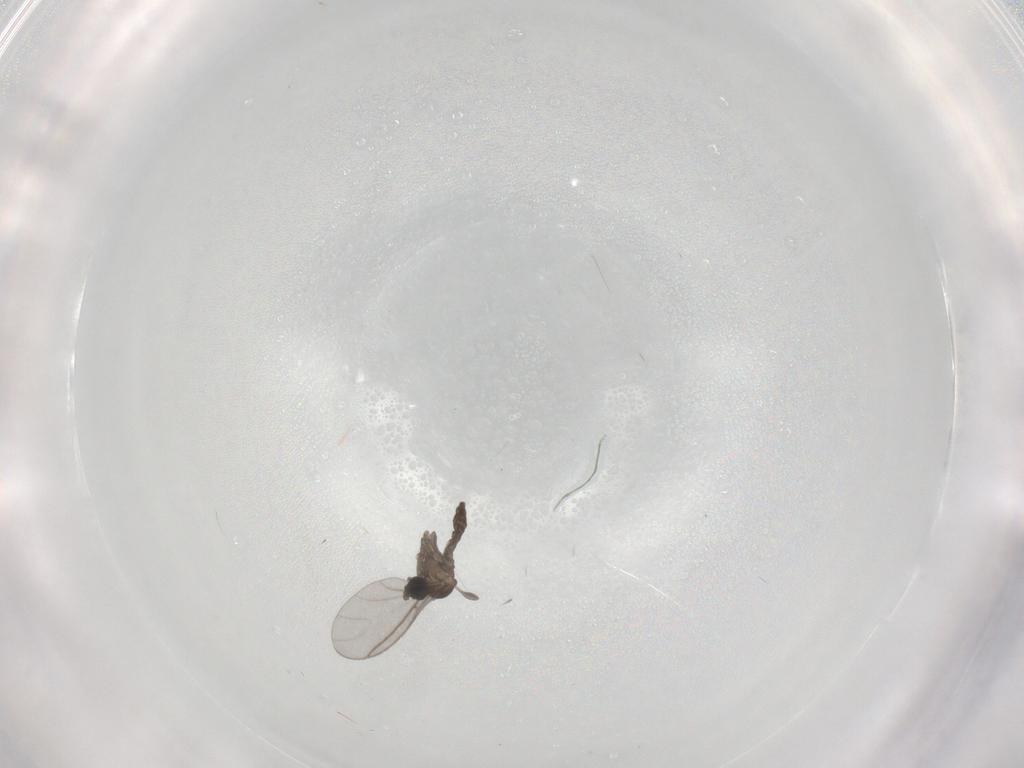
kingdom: Animalia
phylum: Arthropoda
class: Insecta
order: Diptera
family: Sciaridae
